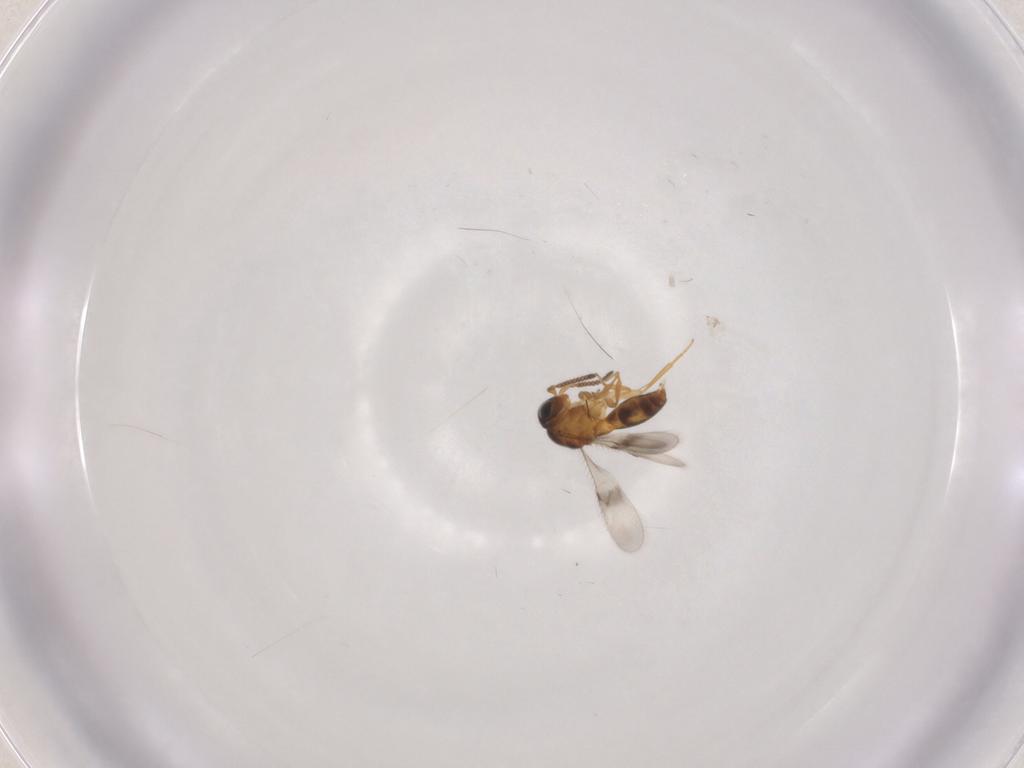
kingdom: Animalia
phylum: Arthropoda
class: Insecta
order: Hymenoptera
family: Scelionidae
